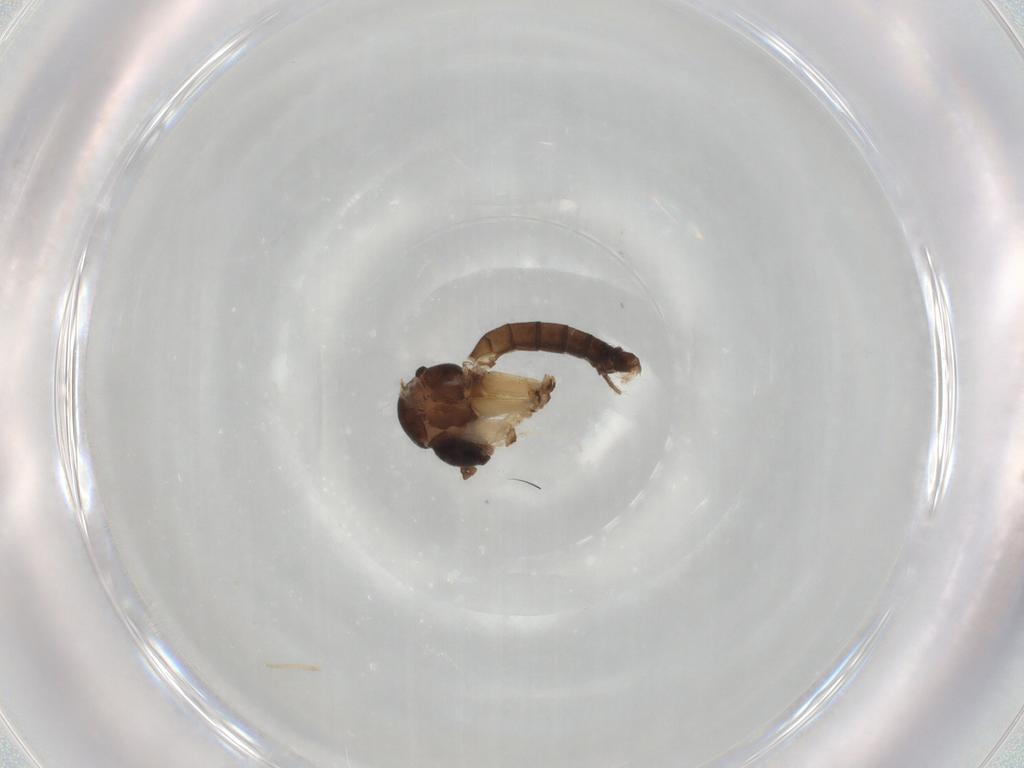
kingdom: Animalia
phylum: Arthropoda
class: Insecta
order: Diptera
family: Mycetophilidae
